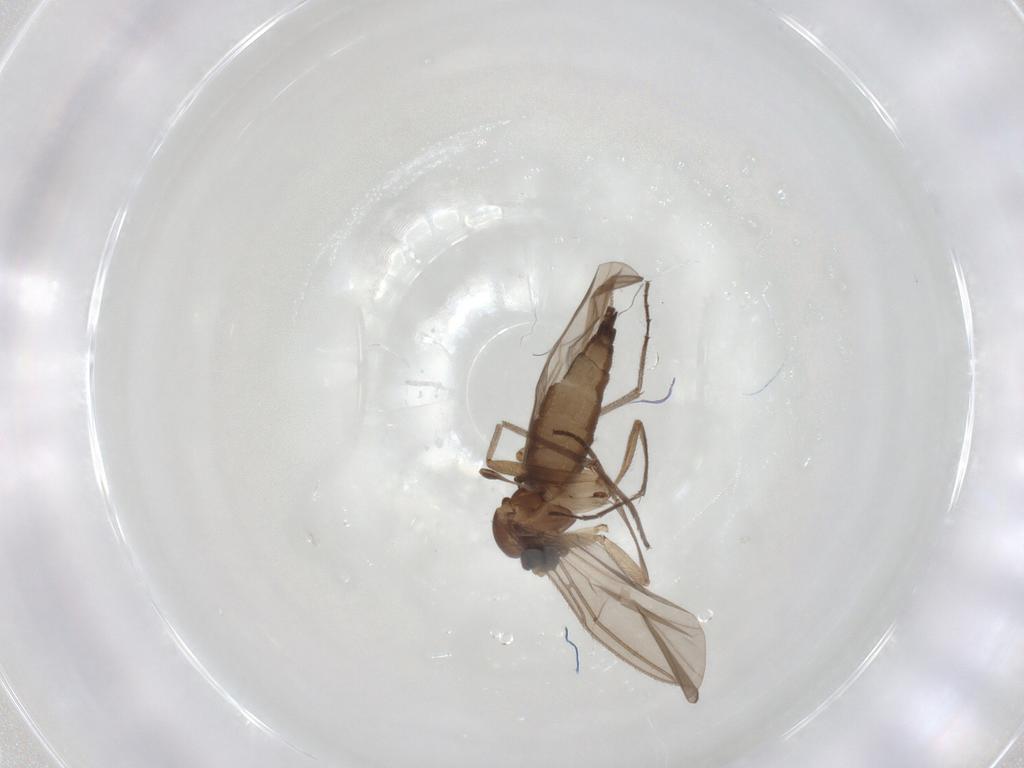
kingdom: Animalia
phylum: Arthropoda
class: Insecta
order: Diptera
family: Sciaridae
